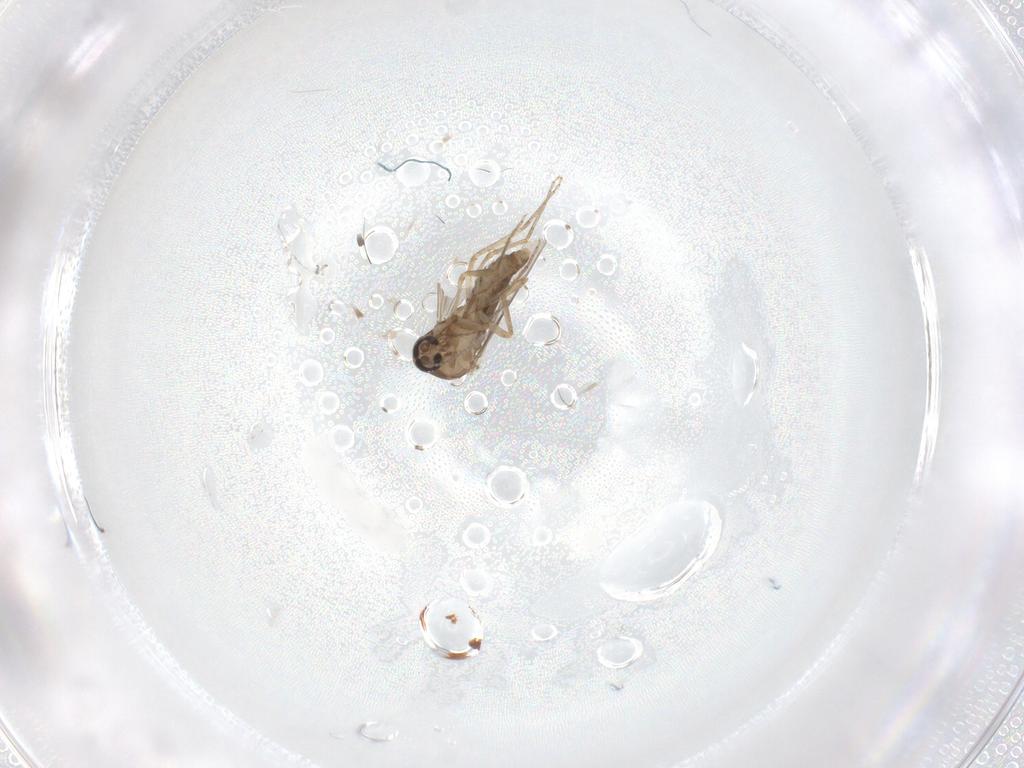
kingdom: Animalia
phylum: Arthropoda
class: Insecta
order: Diptera
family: Ceratopogonidae
